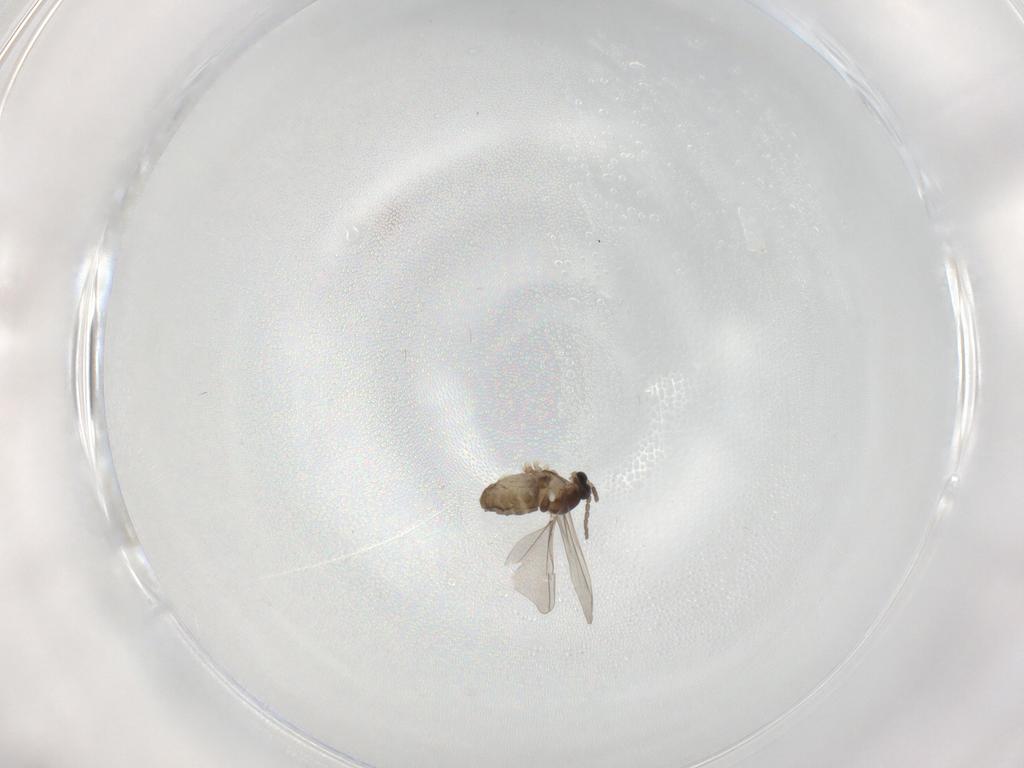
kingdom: Animalia
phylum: Arthropoda
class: Insecta
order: Diptera
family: Cecidomyiidae
